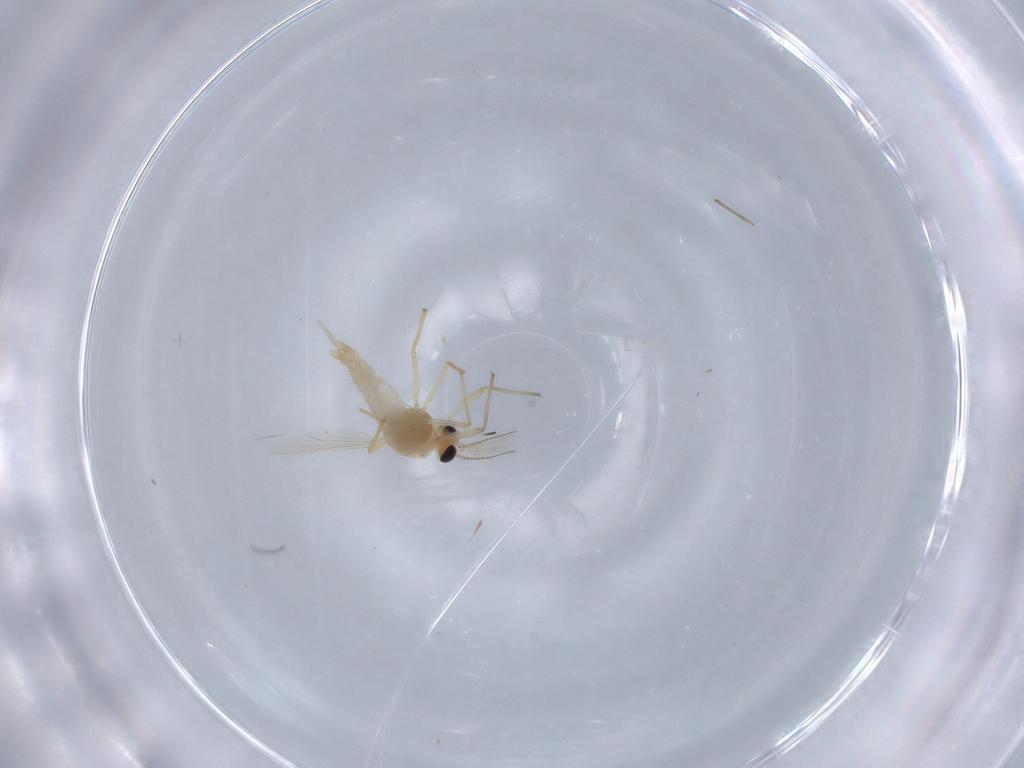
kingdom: Animalia
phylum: Arthropoda
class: Insecta
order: Diptera
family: Chironomidae
